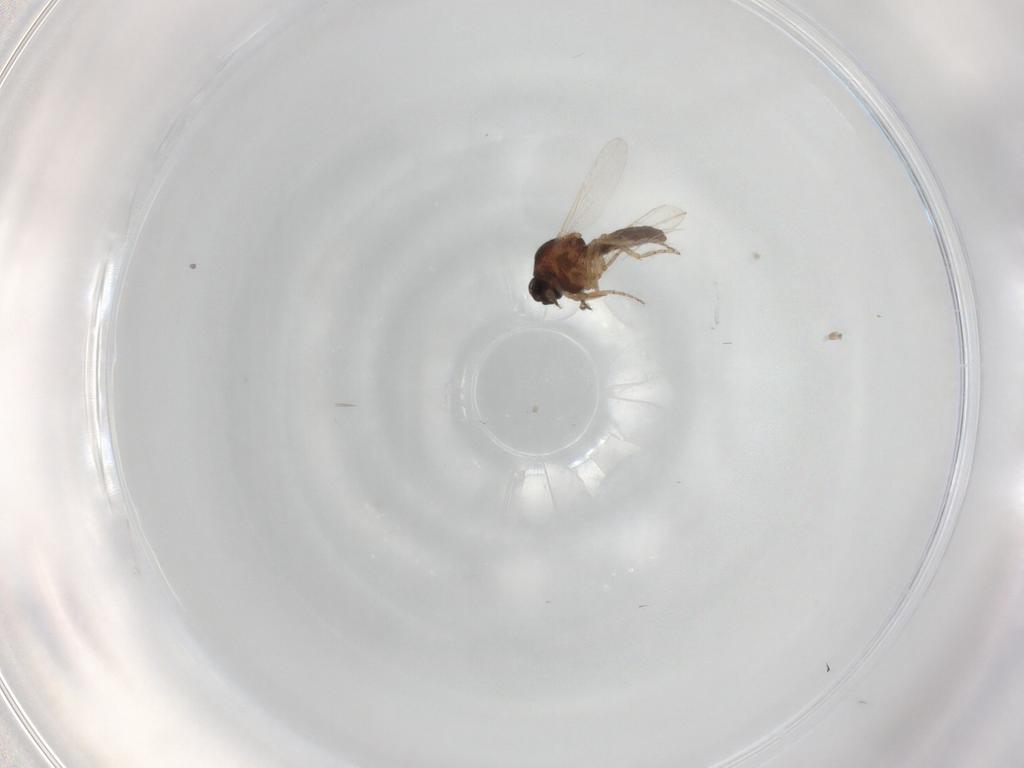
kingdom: Animalia
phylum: Arthropoda
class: Insecta
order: Diptera
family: Ceratopogonidae
